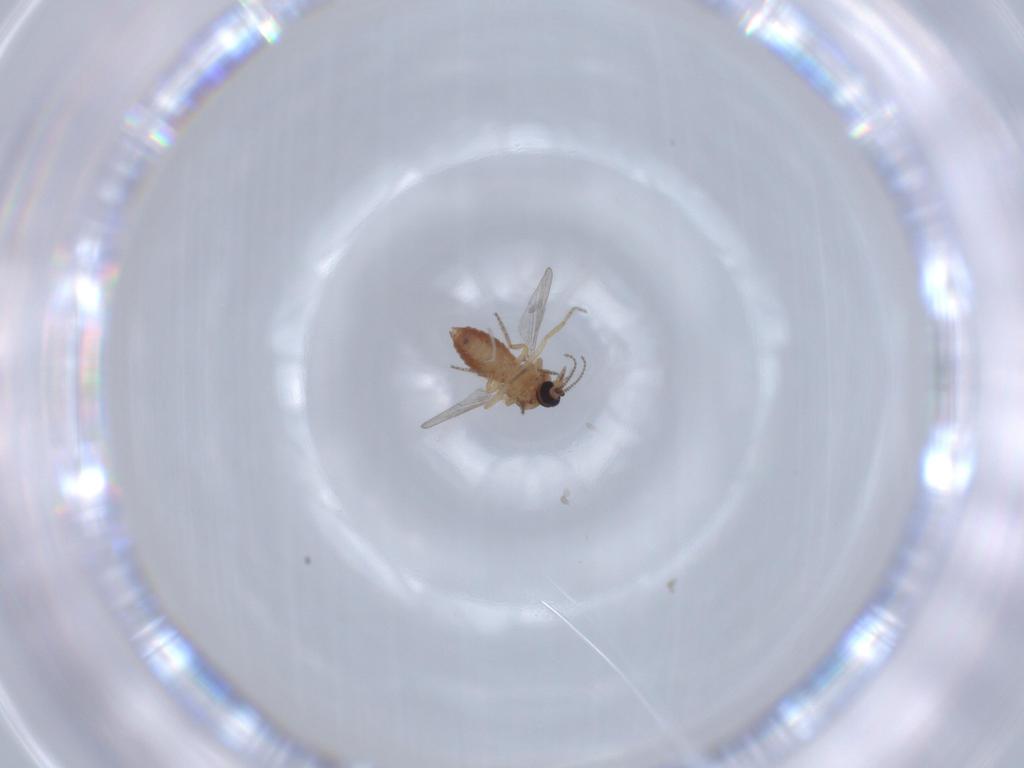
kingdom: Animalia
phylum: Arthropoda
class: Insecta
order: Diptera
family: Ceratopogonidae
